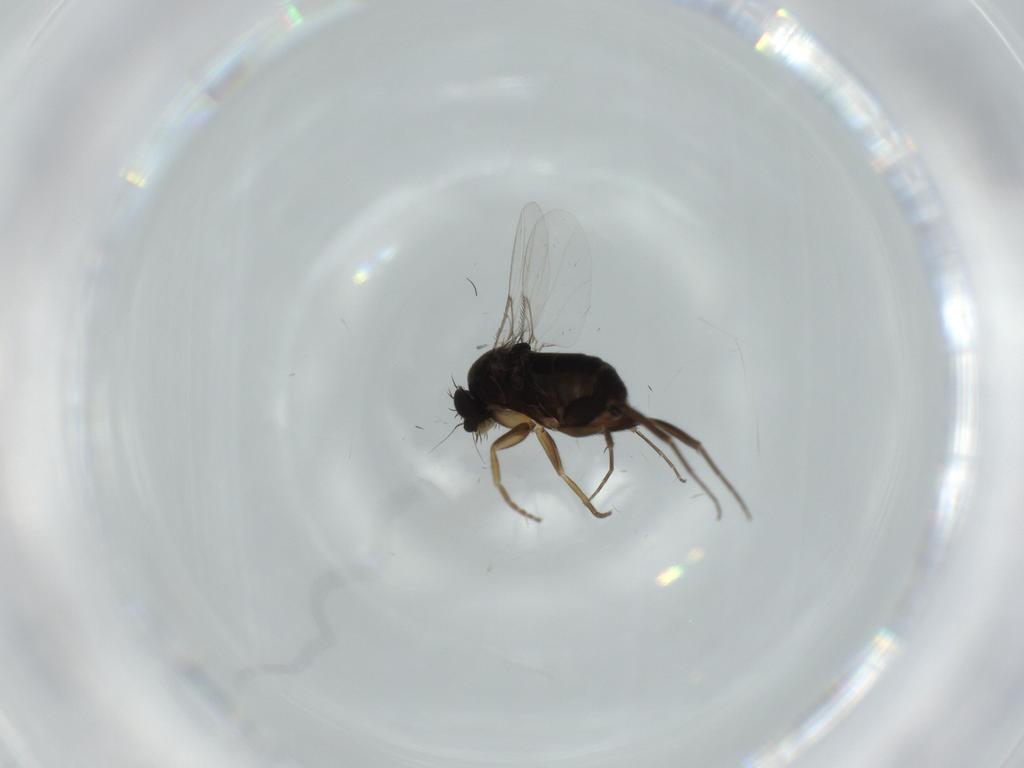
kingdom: Animalia
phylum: Arthropoda
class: Insecta
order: Diptera
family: Phoridae
